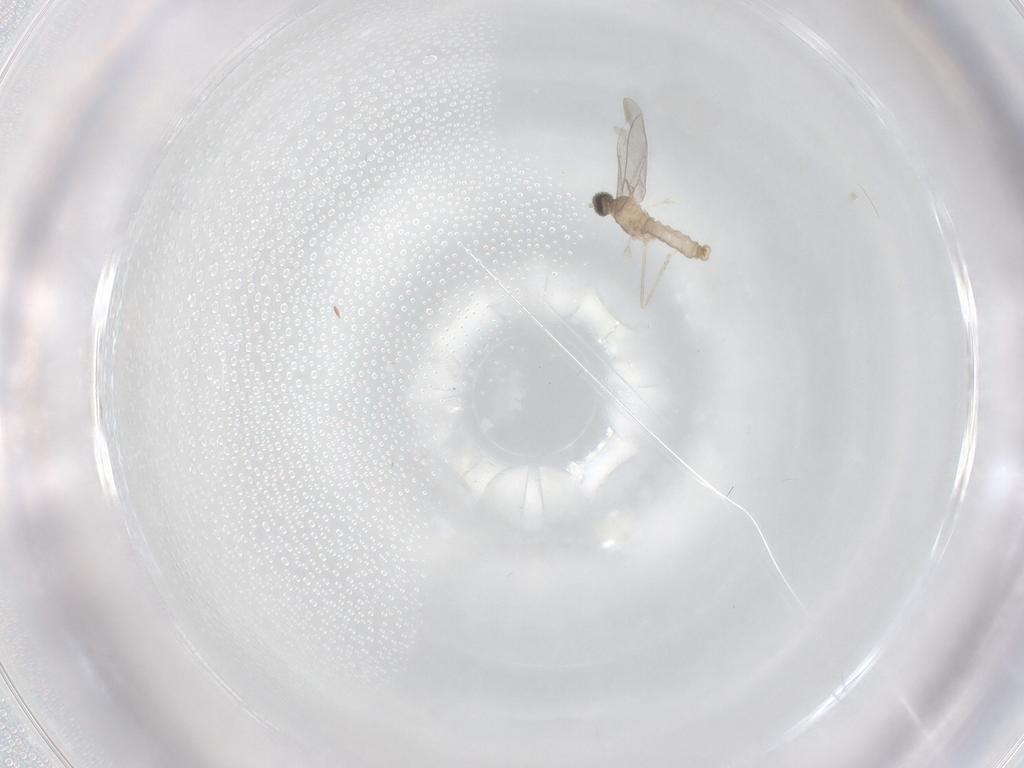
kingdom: Animalia
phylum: Arthropoda
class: Insecta
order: Diptera
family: Cecidomyiidae
